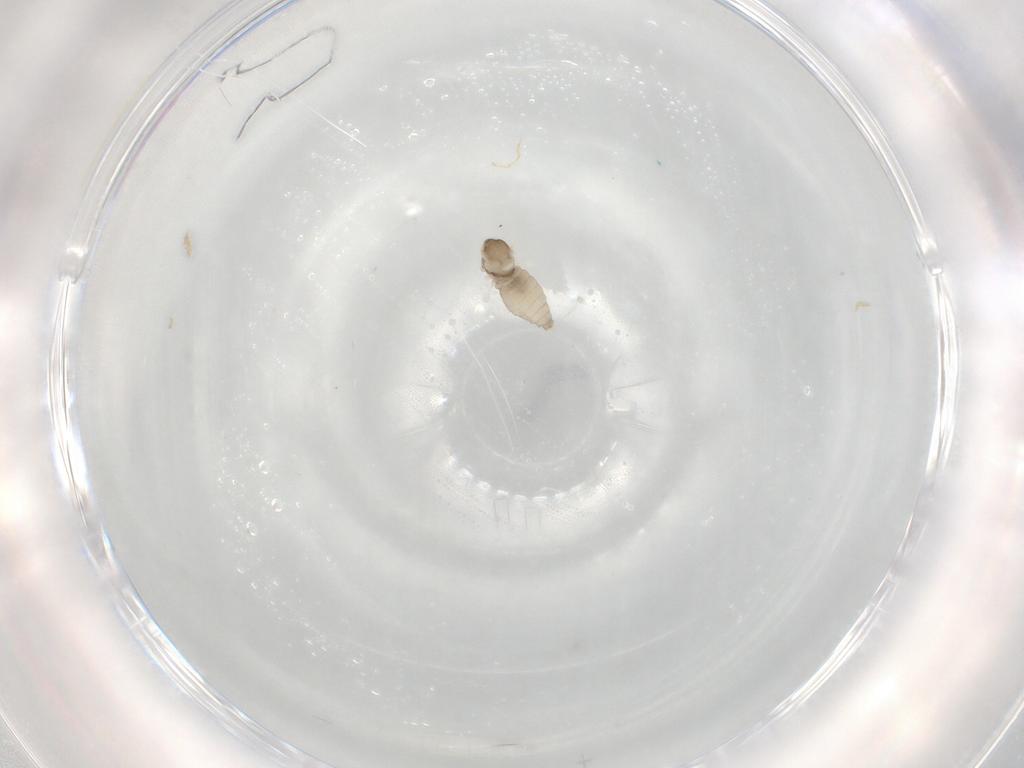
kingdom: Animalia
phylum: Arthropoda
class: Insecta
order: Diptera
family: Cecidomyiidae
